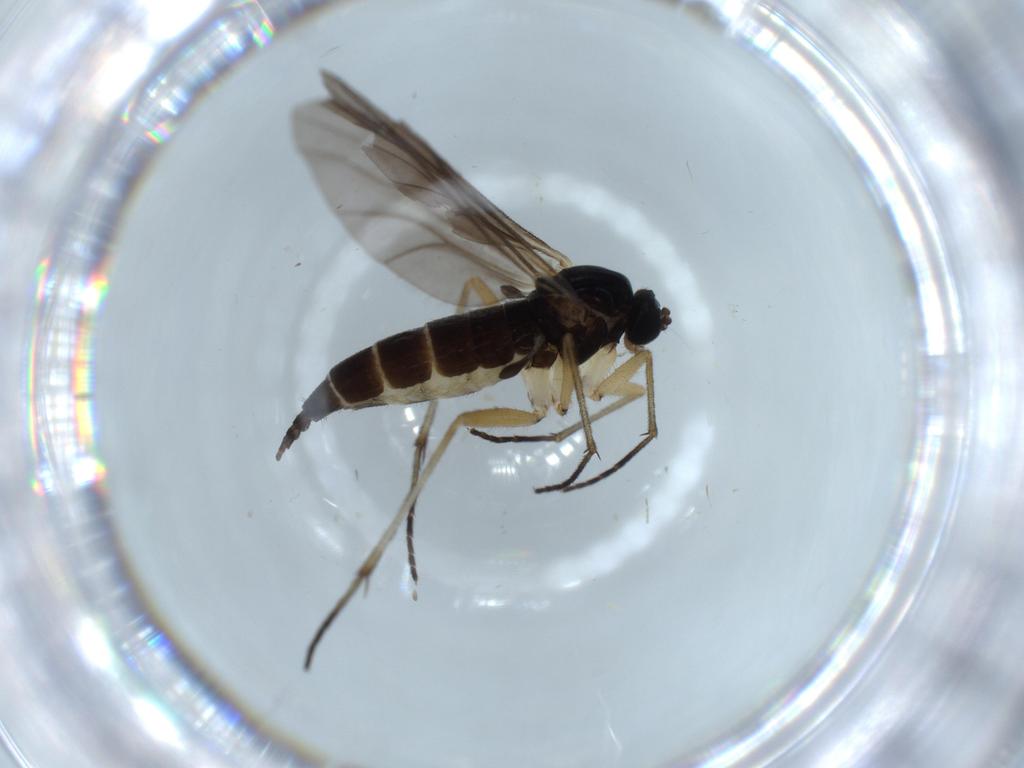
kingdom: Animalia
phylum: Arthropoda
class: Insecta
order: Diptera
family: Sciaridae
